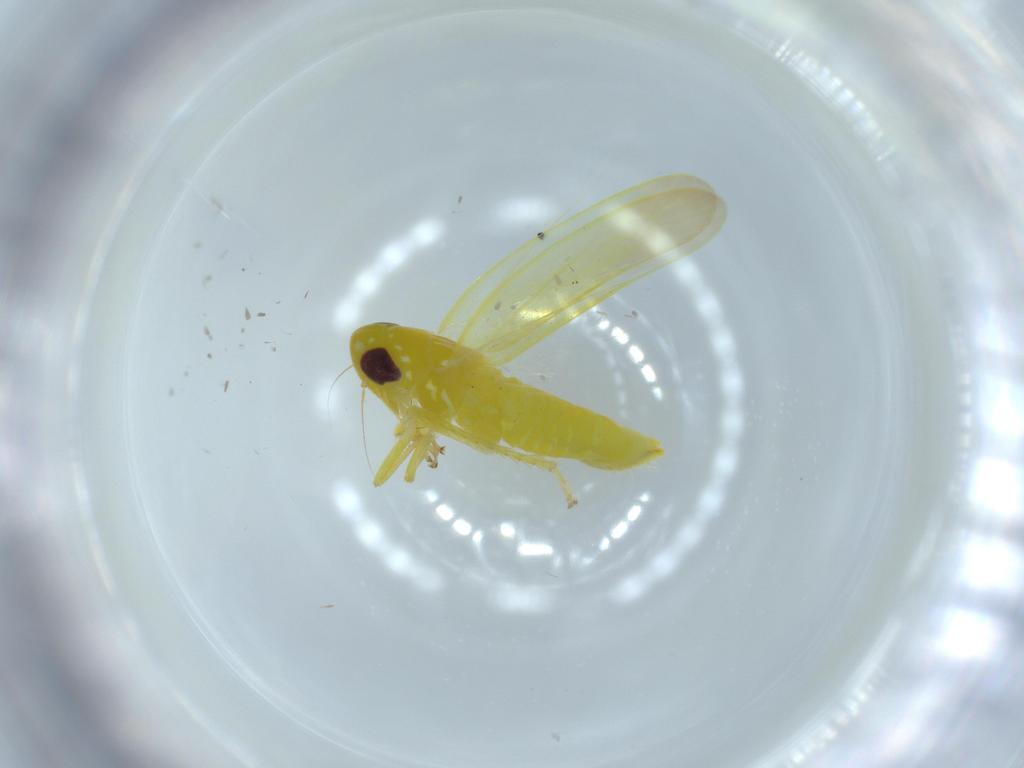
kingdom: Animalia
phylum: Arthropoda
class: Insecta
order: Hemiptera
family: Cicadellidae
